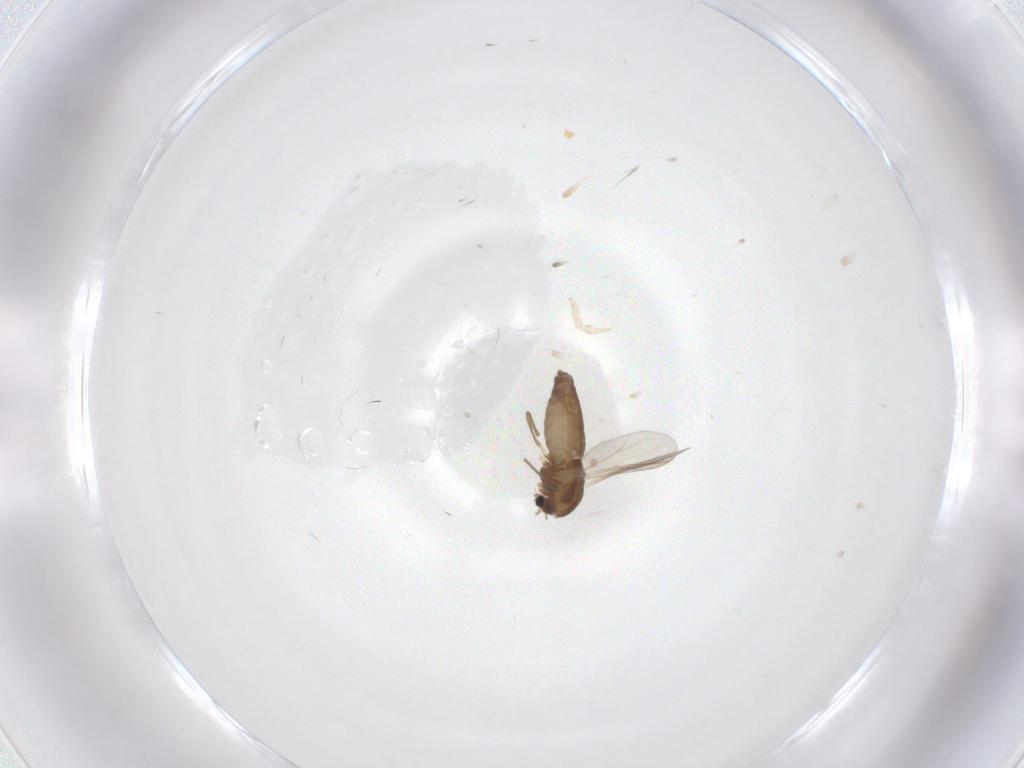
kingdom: Animalia
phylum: Arthropoda
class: Insecta
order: Diptera
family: Chironomidae
